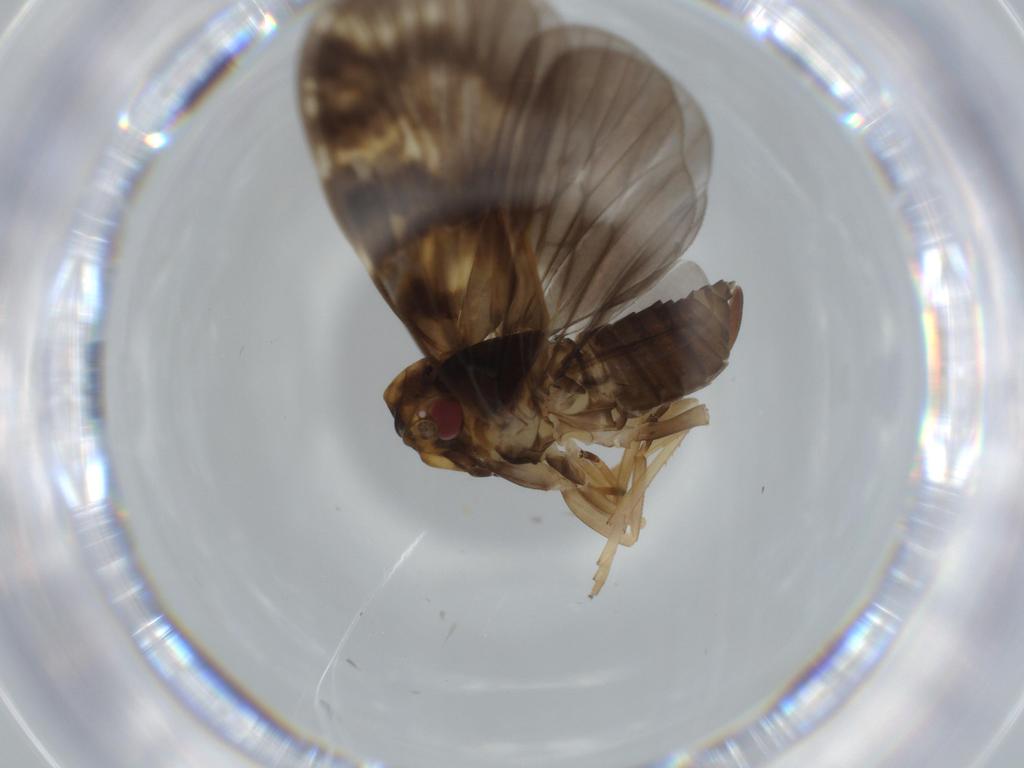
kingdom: Animalia
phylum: Arthropoda
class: Insecta
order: Hemiptera
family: Cixiidae
